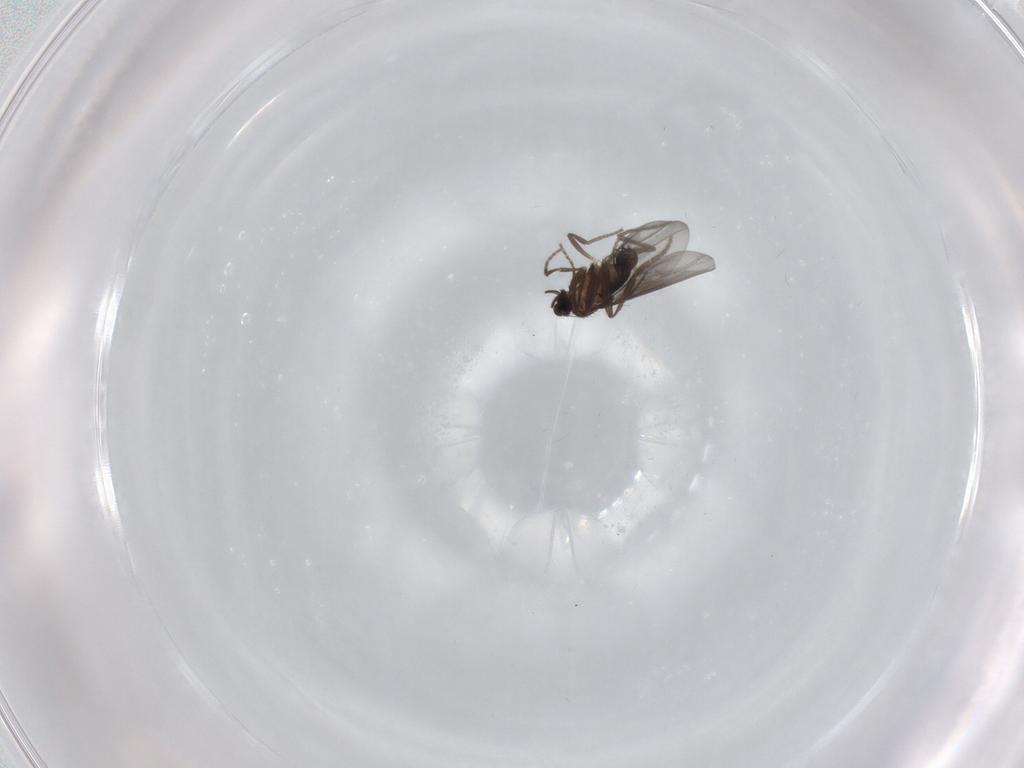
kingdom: Animalia
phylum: Arthropoda
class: Insecta
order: Diptera
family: Phoridae
